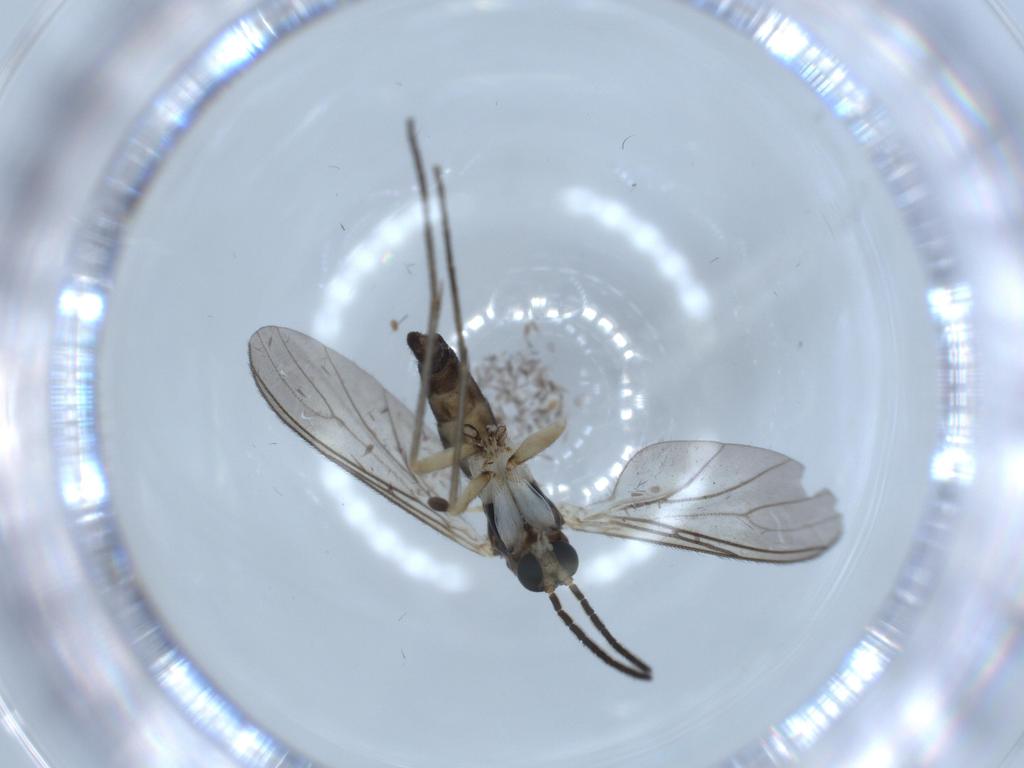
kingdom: Animalia
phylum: Arthropoda
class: Insecta
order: Diptera
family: Sciaridae
